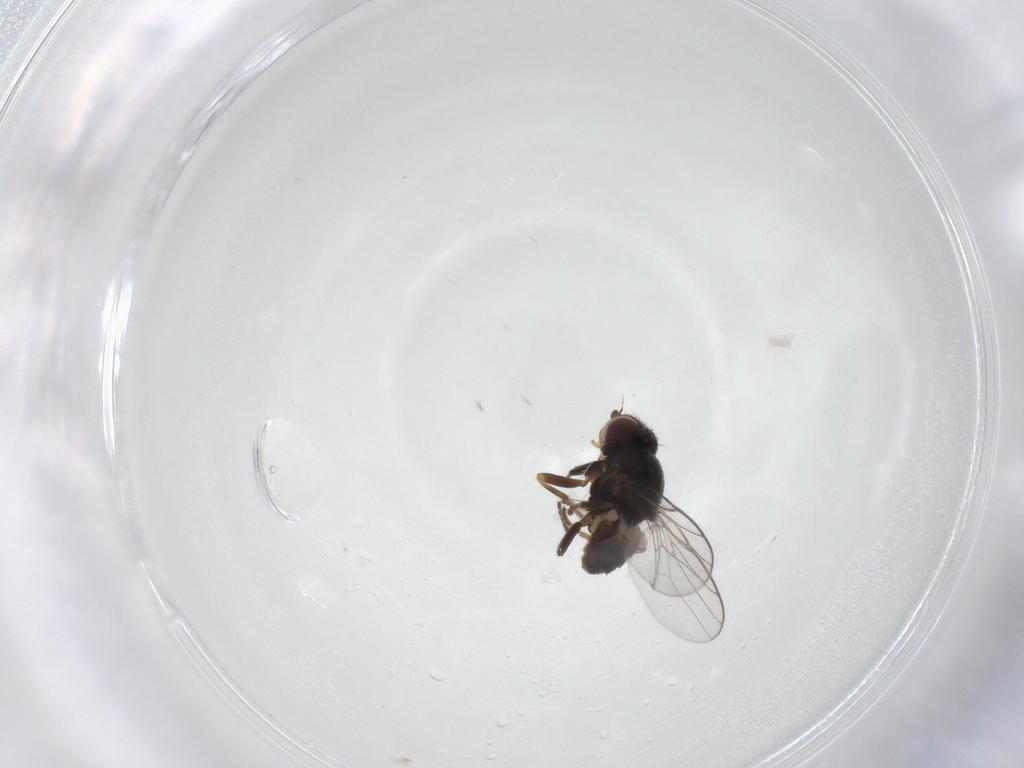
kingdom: Animalia
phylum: Arthropoda
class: Insecta
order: Diptera
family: Chloropidae
